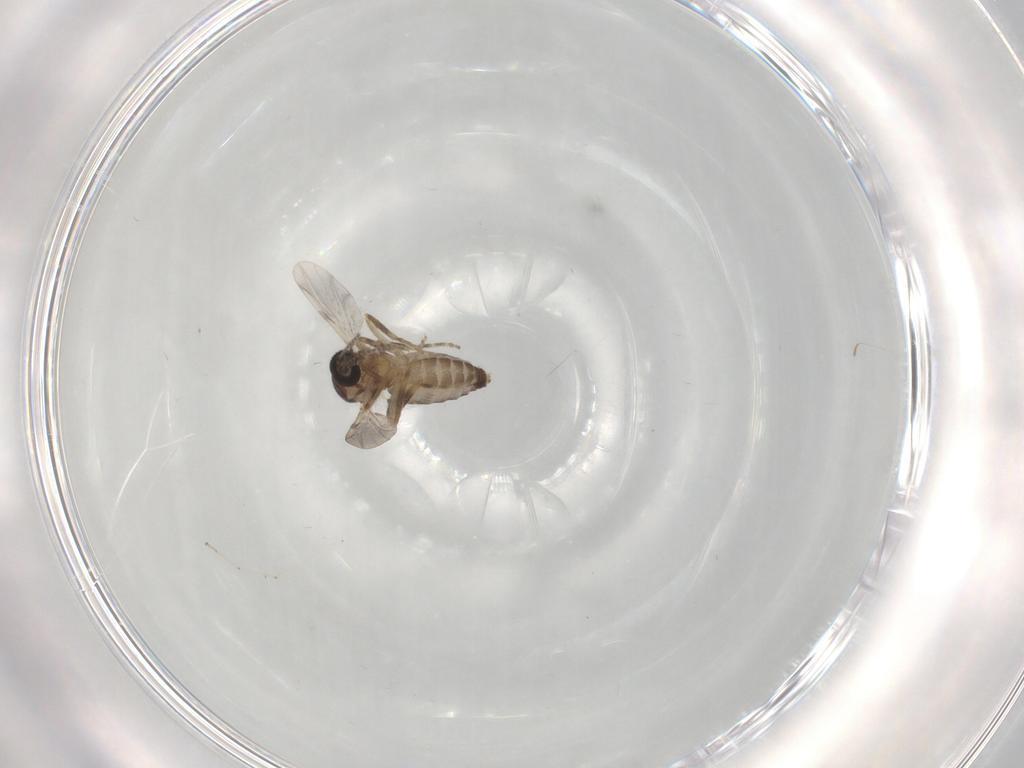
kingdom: Animalia
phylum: Arthropoda
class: Insecta
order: Diptera
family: Ceratopogonidae
